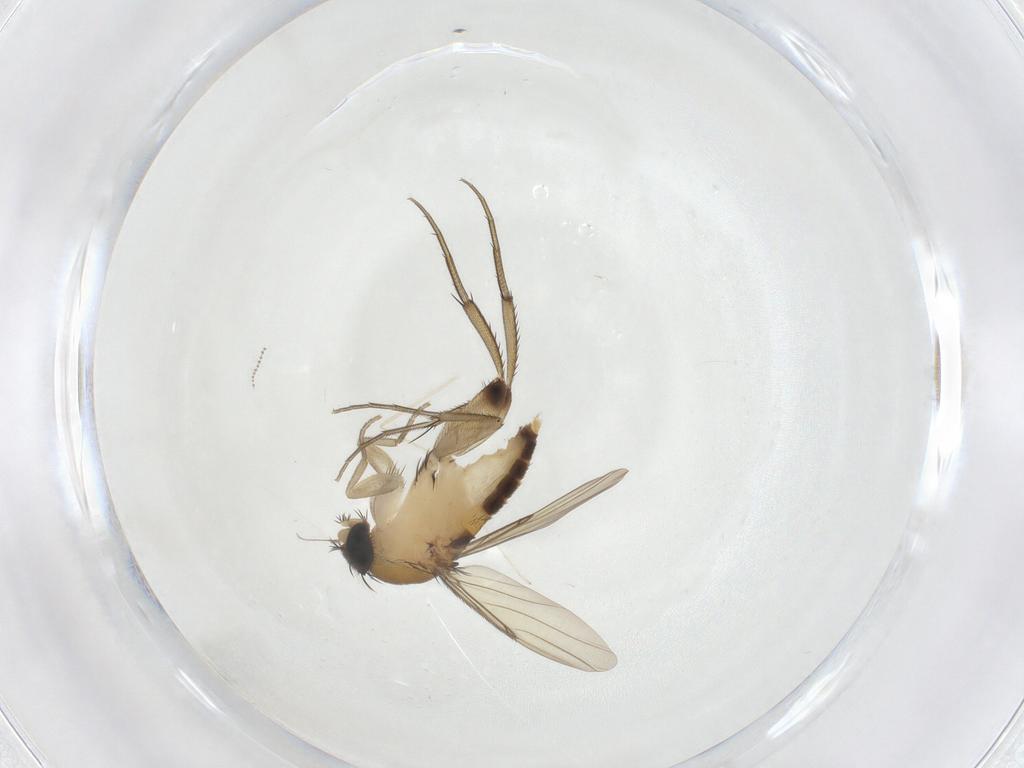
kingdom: Animalia
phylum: Arthropoda
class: Insecta
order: Diptera
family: Phoridae
